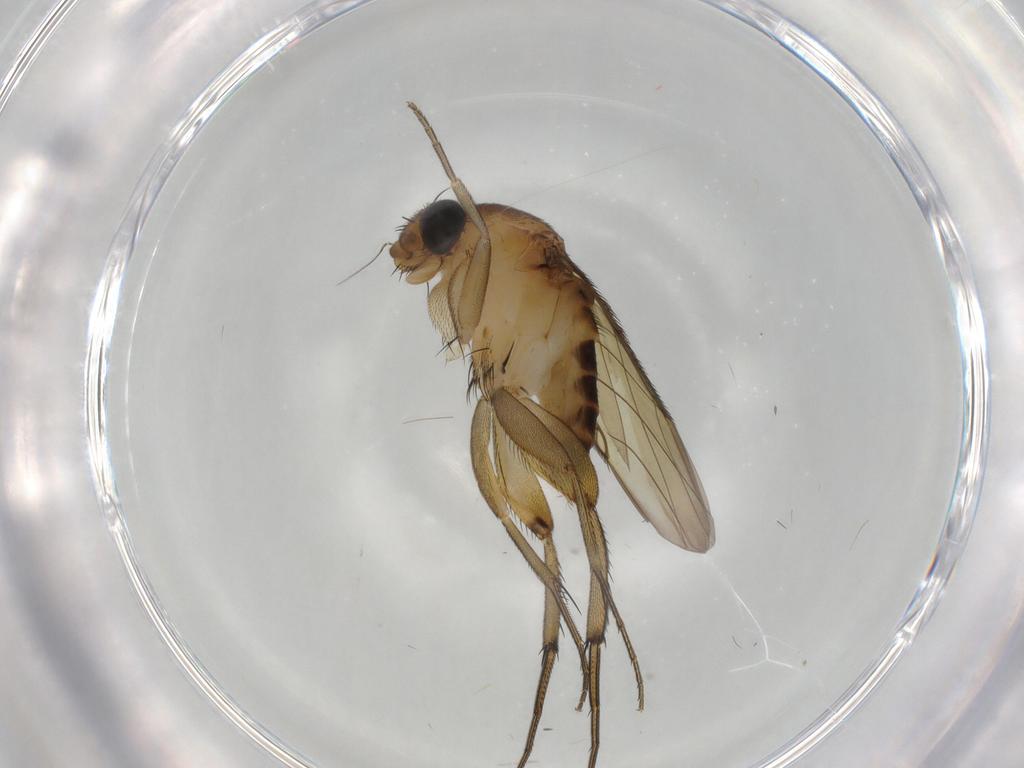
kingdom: Animalia
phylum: Arthropoda
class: Insecta
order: Diptera
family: Phoridae
